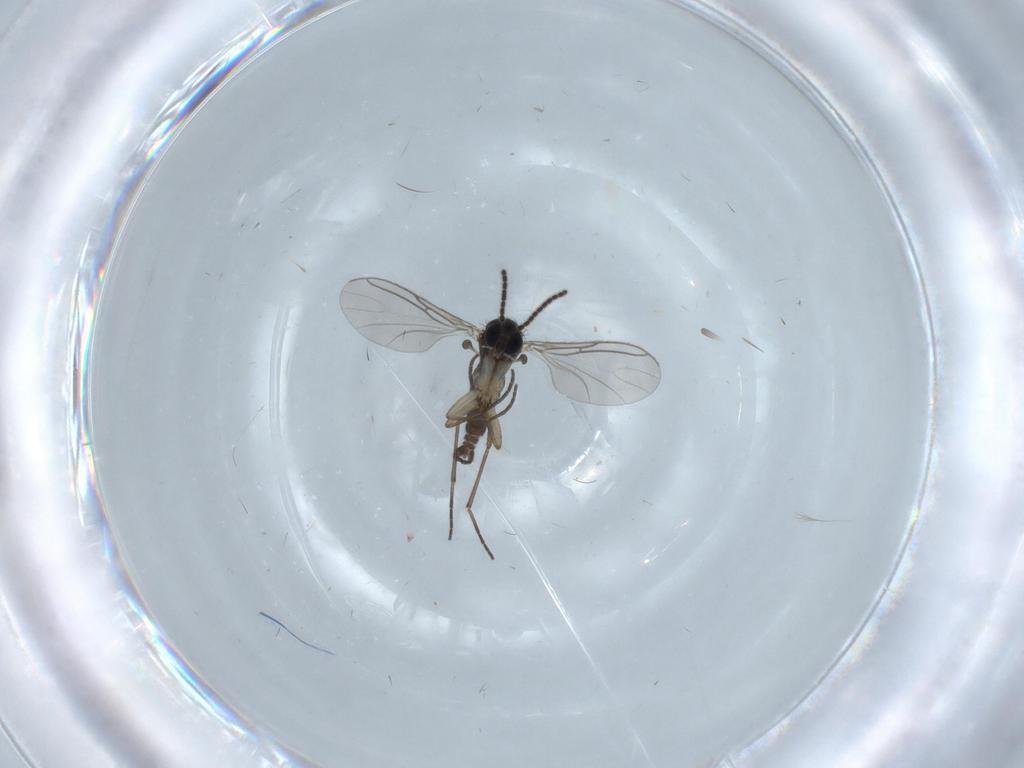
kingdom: Animalia
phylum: Arthropoda
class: Insecta
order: Diptera
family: Sciaridae
